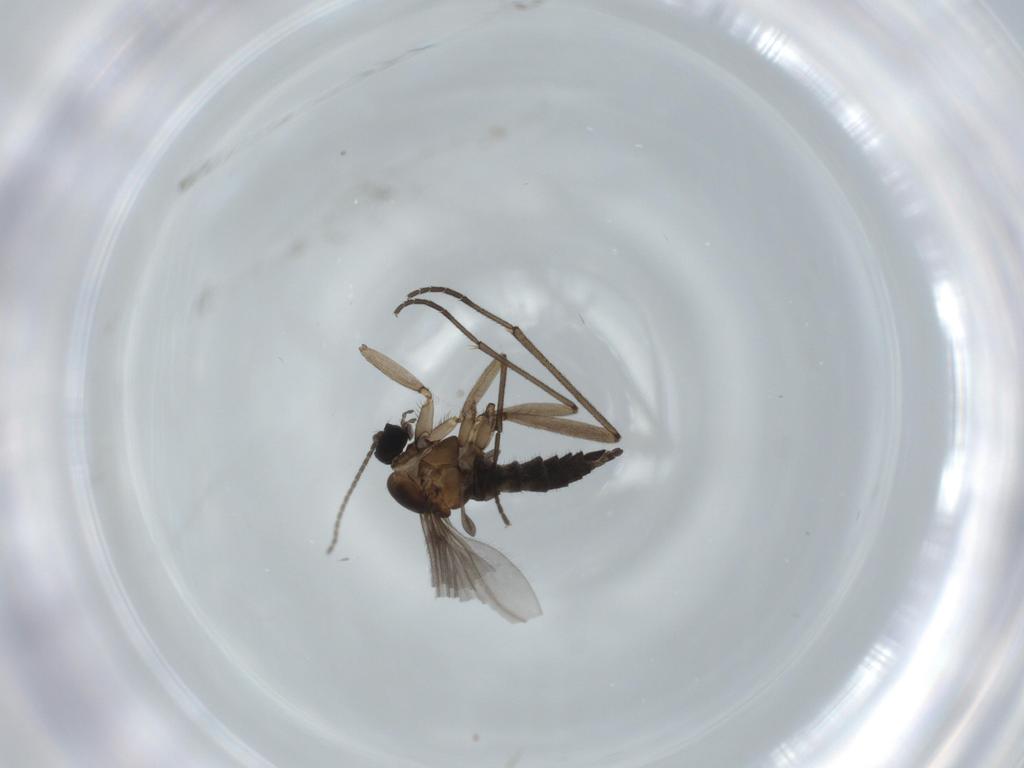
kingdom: Animalia
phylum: Arthropoda
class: Insecta
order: Diptera
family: Sciaridae
